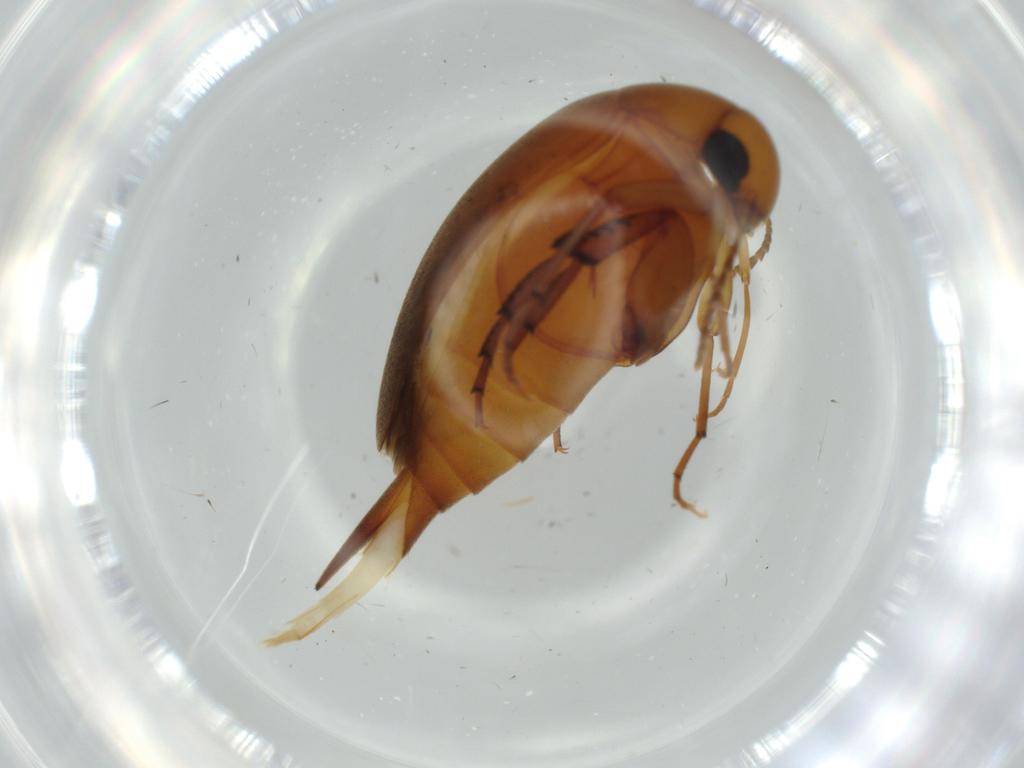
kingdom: Animalia
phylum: Arthropoda
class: Insecta
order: Coleoptera
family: Mordellidae
